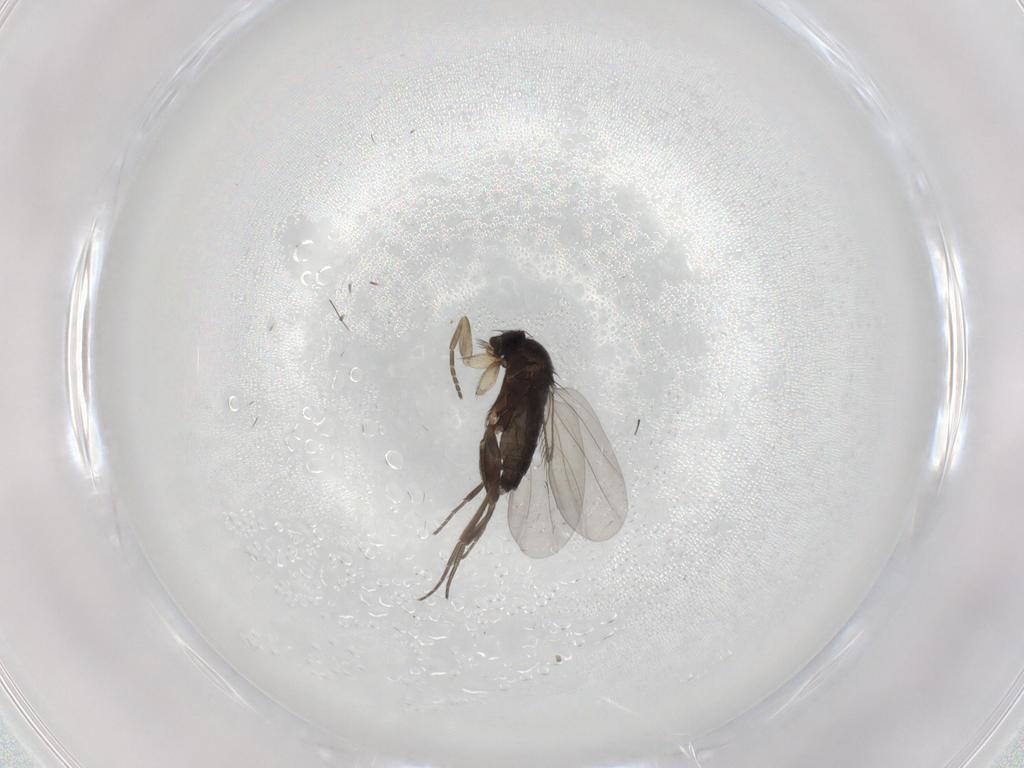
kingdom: Animalia
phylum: Arthropoda
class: Insecta
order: Diptera
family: Phoridae
